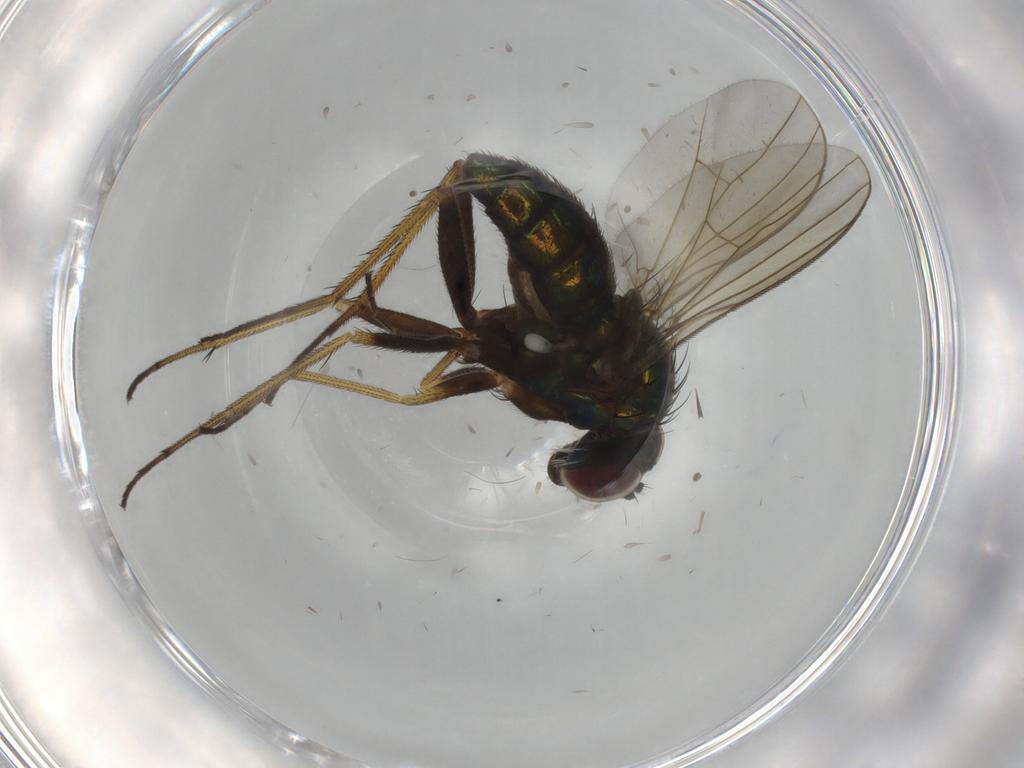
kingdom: Animalia
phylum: Arthropoda
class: Insecta
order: Diptera
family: Dolichopodidae
